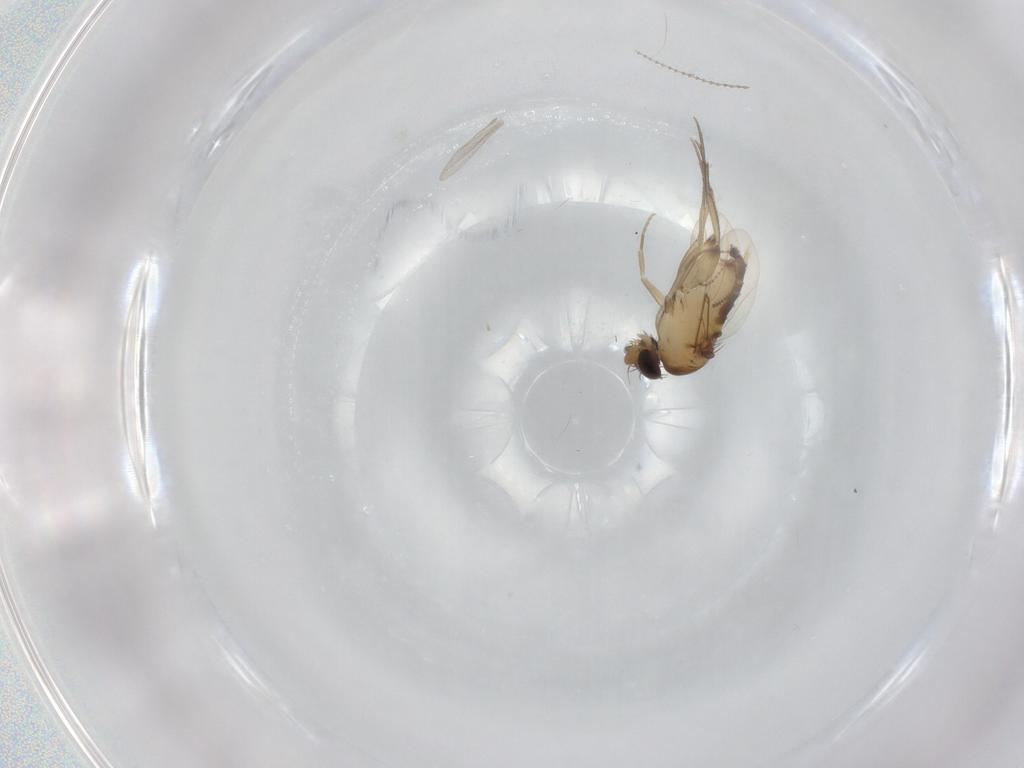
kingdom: Animalia
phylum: Arthropoda
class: Insecta
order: Diptera
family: Phoridae
